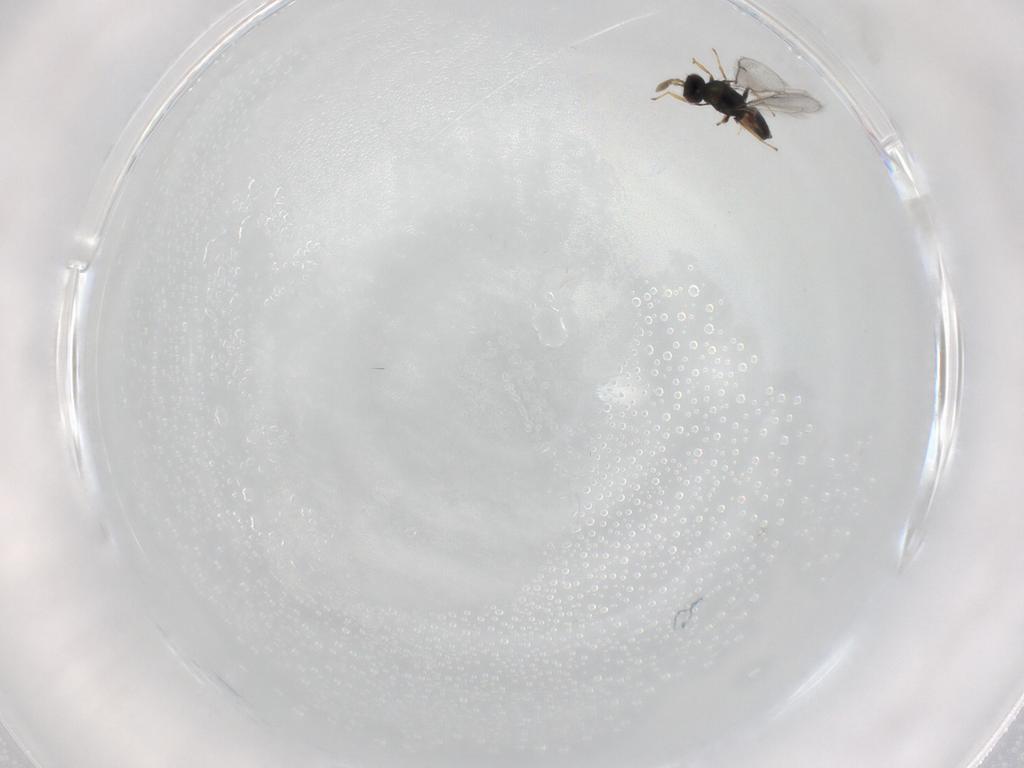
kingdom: Animalia
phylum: Arthropoda
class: Insecta
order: Hymenoptera
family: Eulophidae
